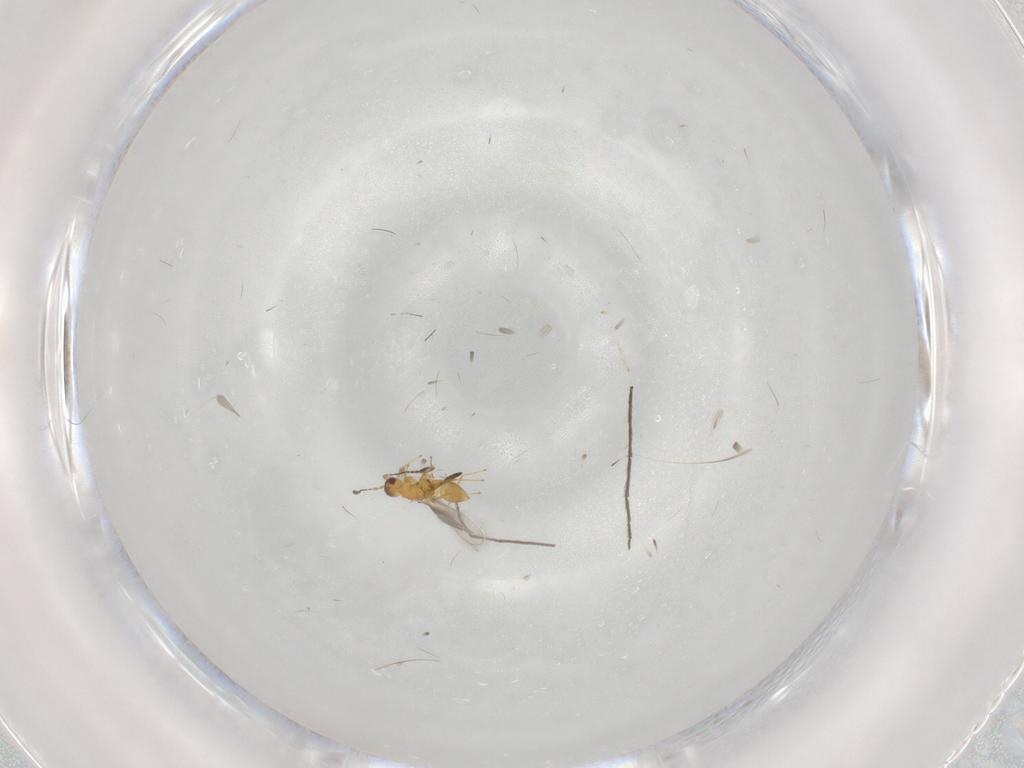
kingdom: Animalia
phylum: Arthropoda
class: Insecta
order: Hymenoptera
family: Mymaridae
